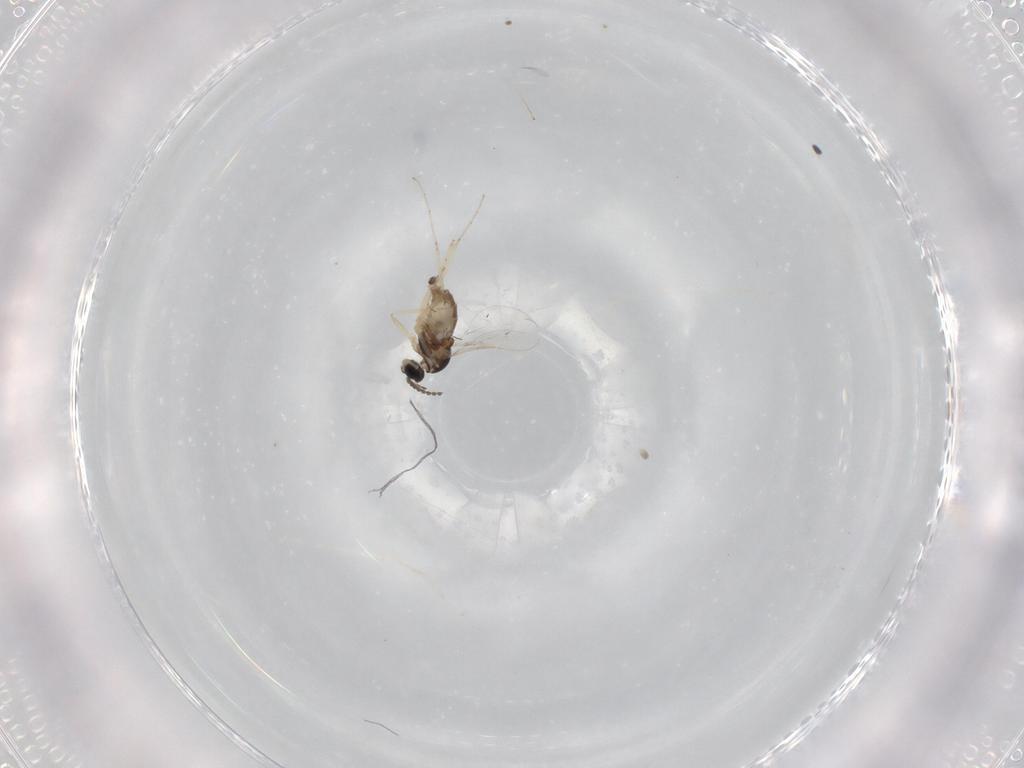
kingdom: Animalia
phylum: Arthropoda
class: Insecta
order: Diptera
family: Cecidomyiidae
